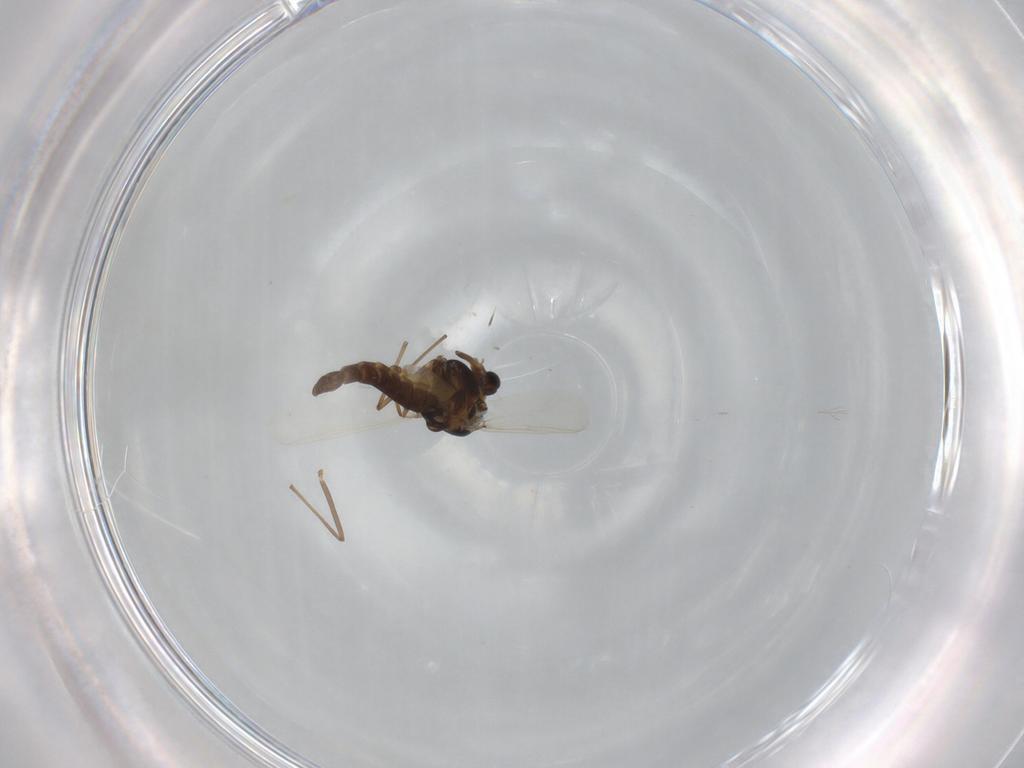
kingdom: Animalia
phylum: Arthropoda
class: Insecta
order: Diptera
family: Chironomidae
